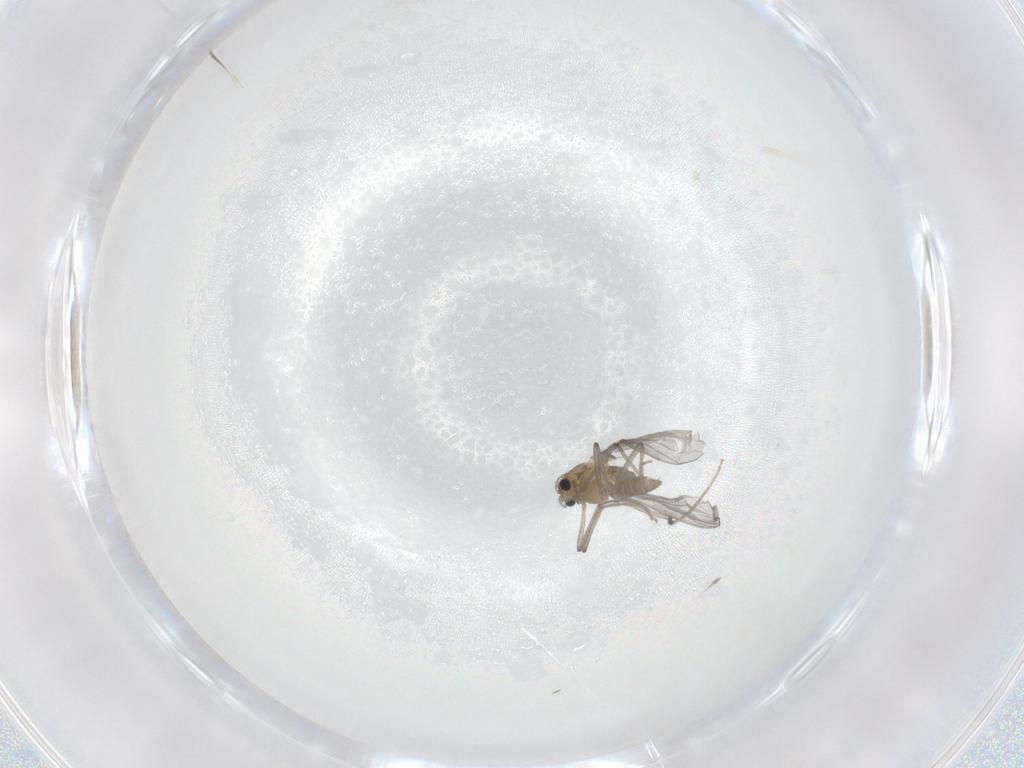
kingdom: Animalia
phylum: Arthropoda
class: Insecta
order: Diptera
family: Chironomidae
